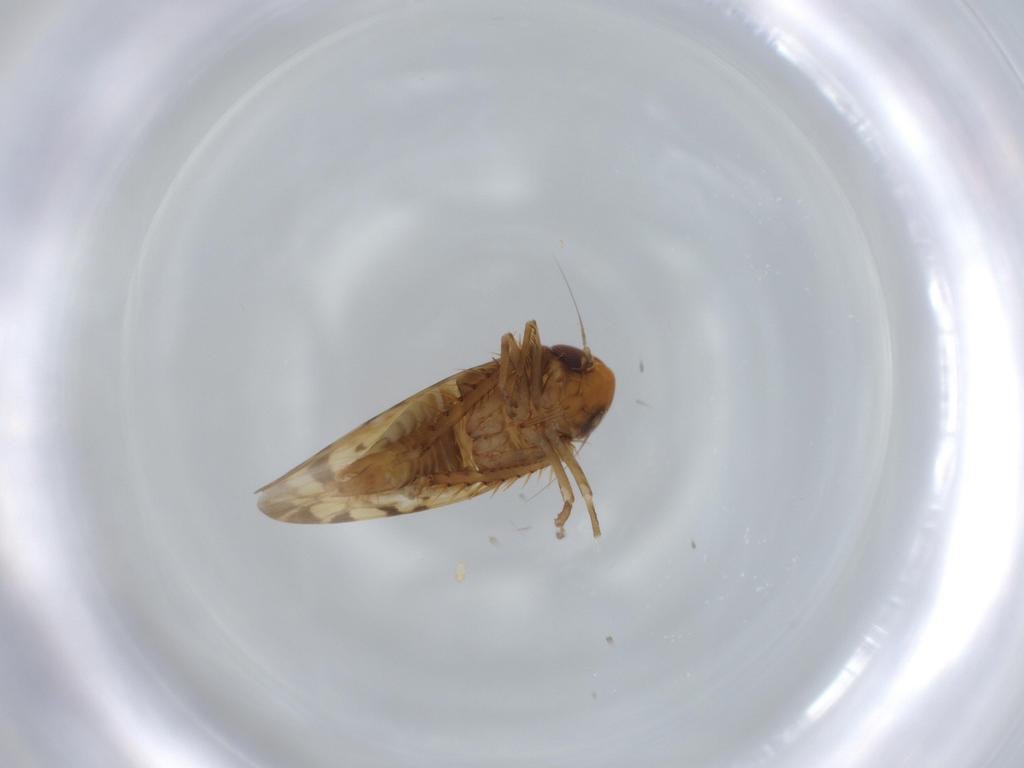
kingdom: Animalia
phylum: Arthropoda
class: Insecta
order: Hemiptera
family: Cicadellidae
